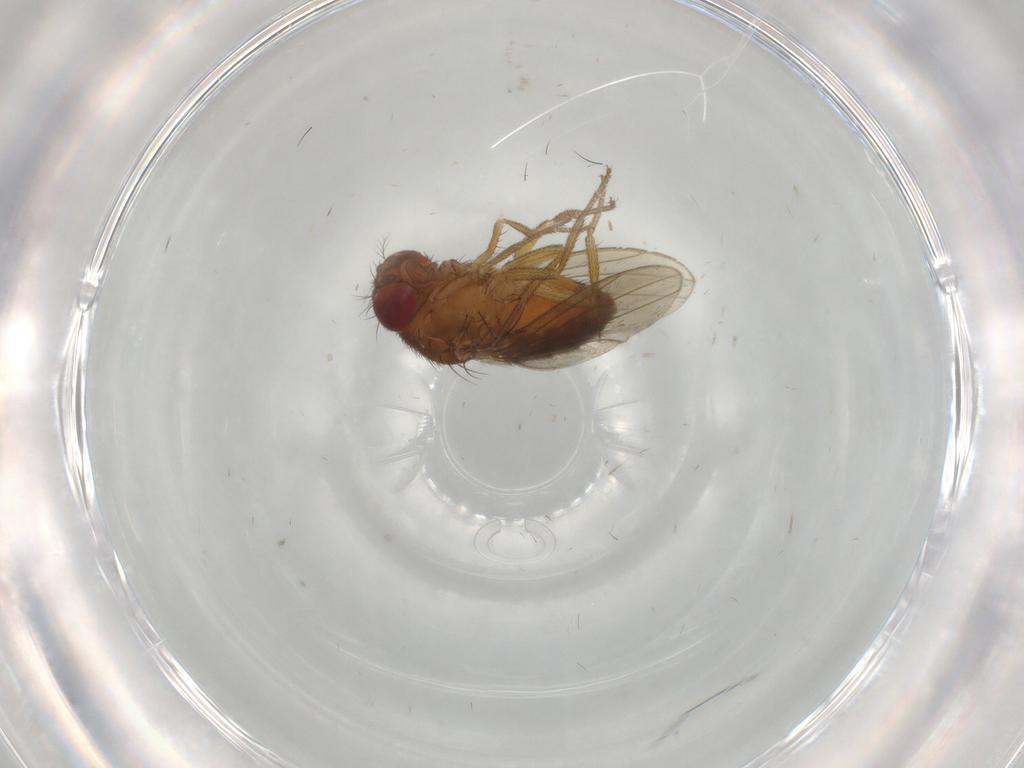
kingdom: Animalia
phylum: Arthropoda
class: Insecta
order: Diptera
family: Drosophilidae
